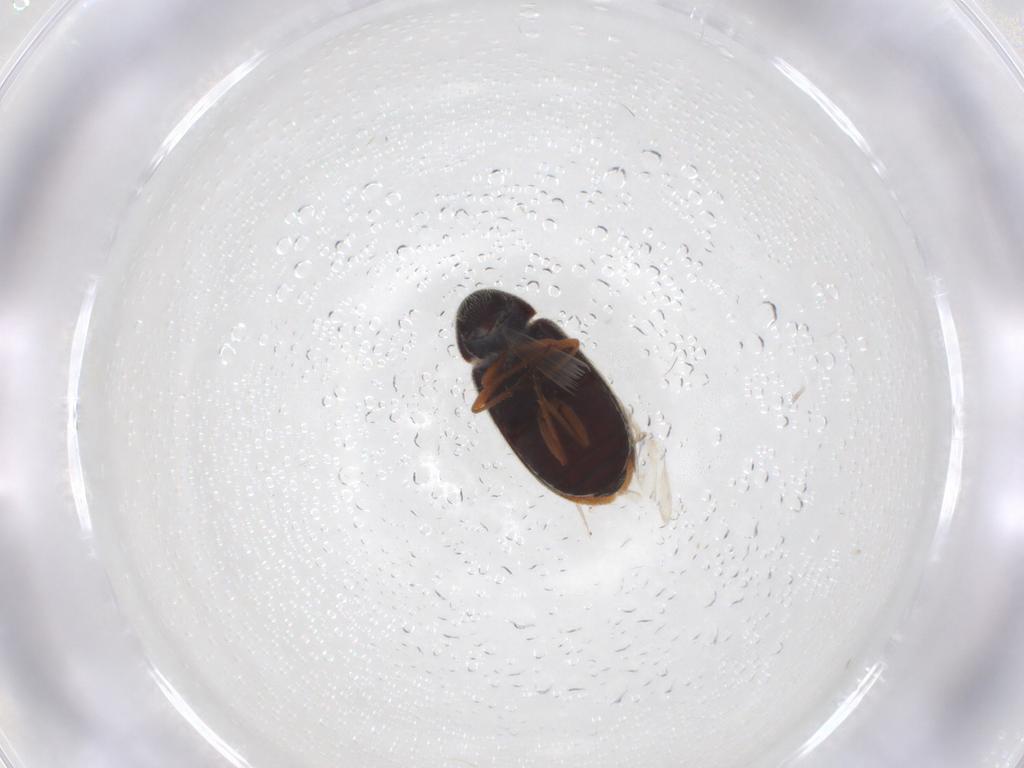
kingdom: Animalia
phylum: Arthropoda
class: Insecta
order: Coleoptera
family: Rhadalidae
